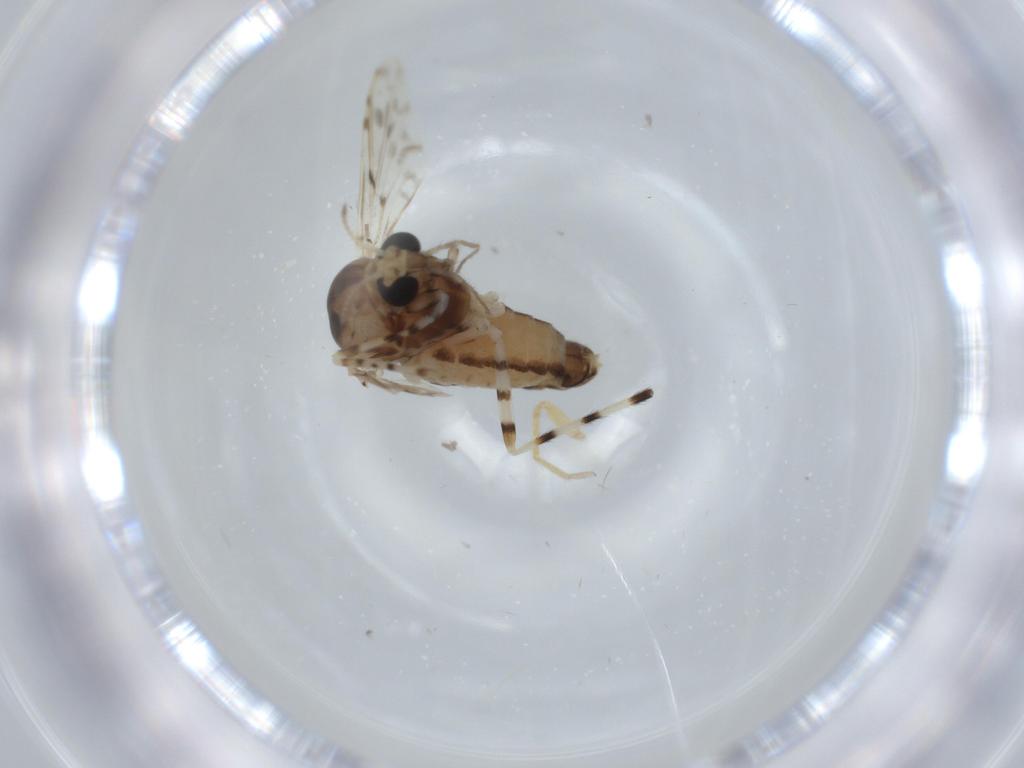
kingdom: Animalia
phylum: Arthropoda
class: Insecta
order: Diptera
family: Chironomidae
